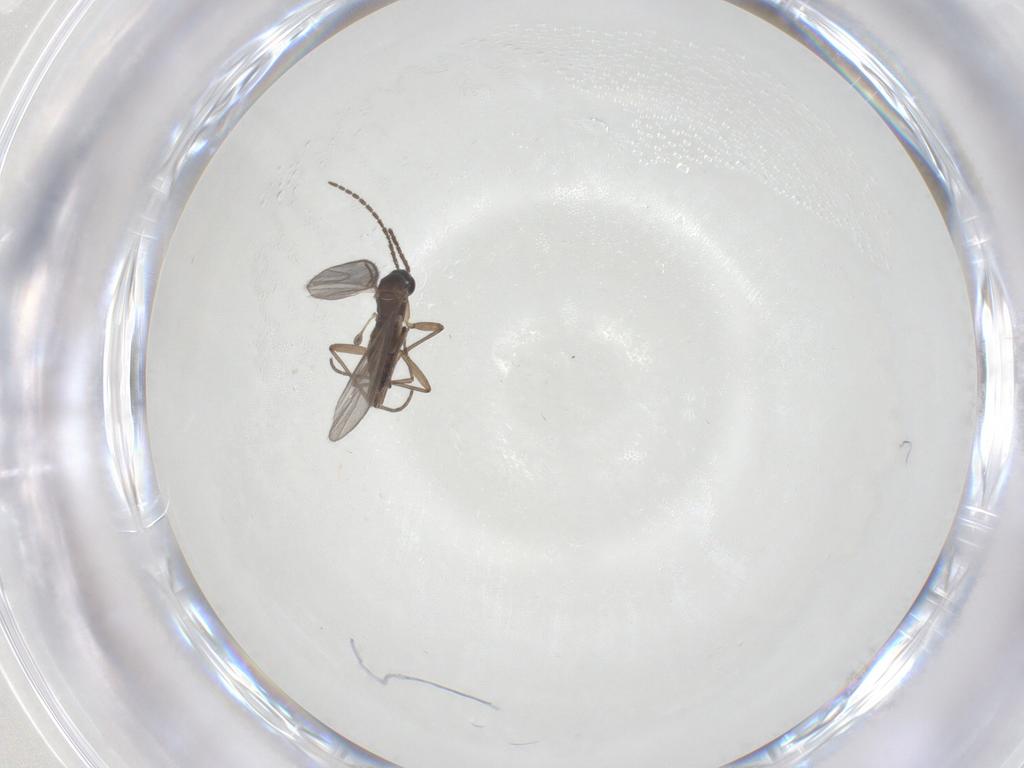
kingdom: Animalia
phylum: Arthropoda
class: Insecta
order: Diptera
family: Sciaridae
